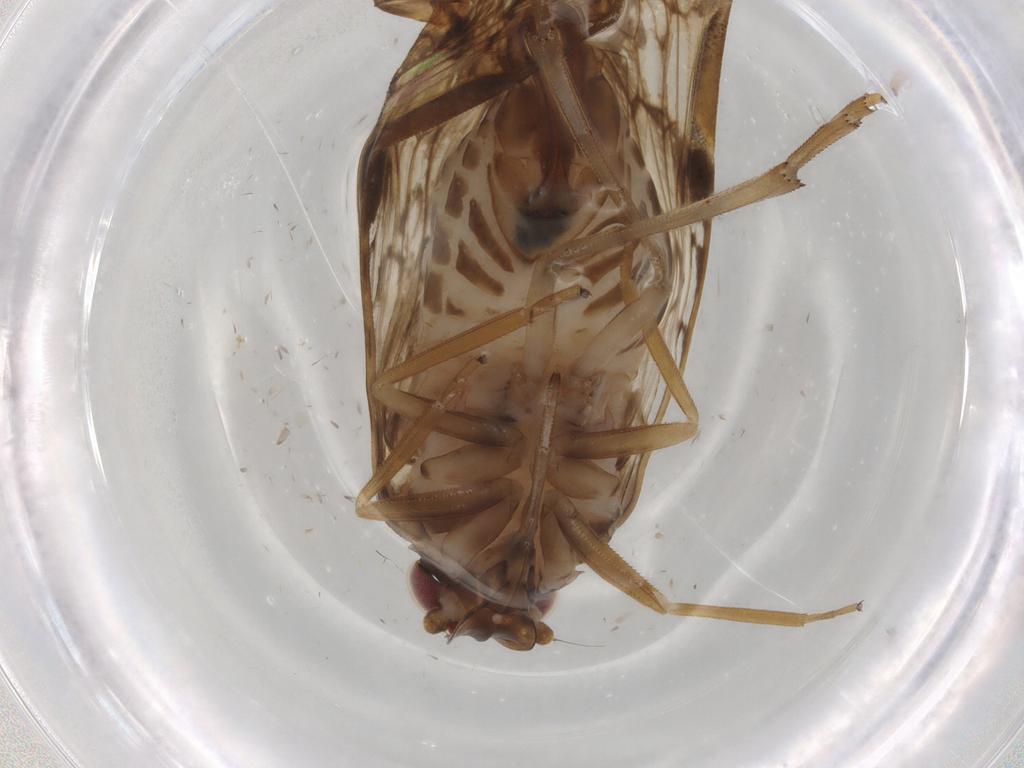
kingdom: Animalia
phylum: Arthropoda
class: Insecta
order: Hemiptera
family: Cixiidae
